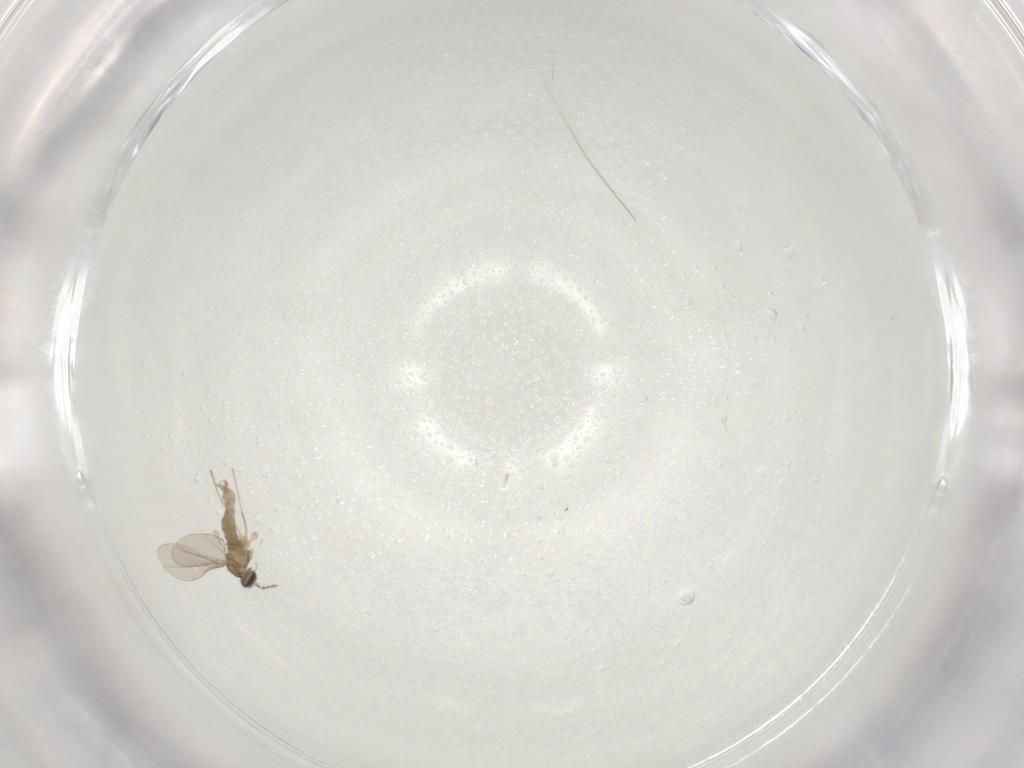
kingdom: Animalia
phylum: Arthropoda
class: Insecta
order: Diptera
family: Cecidomyiidae
